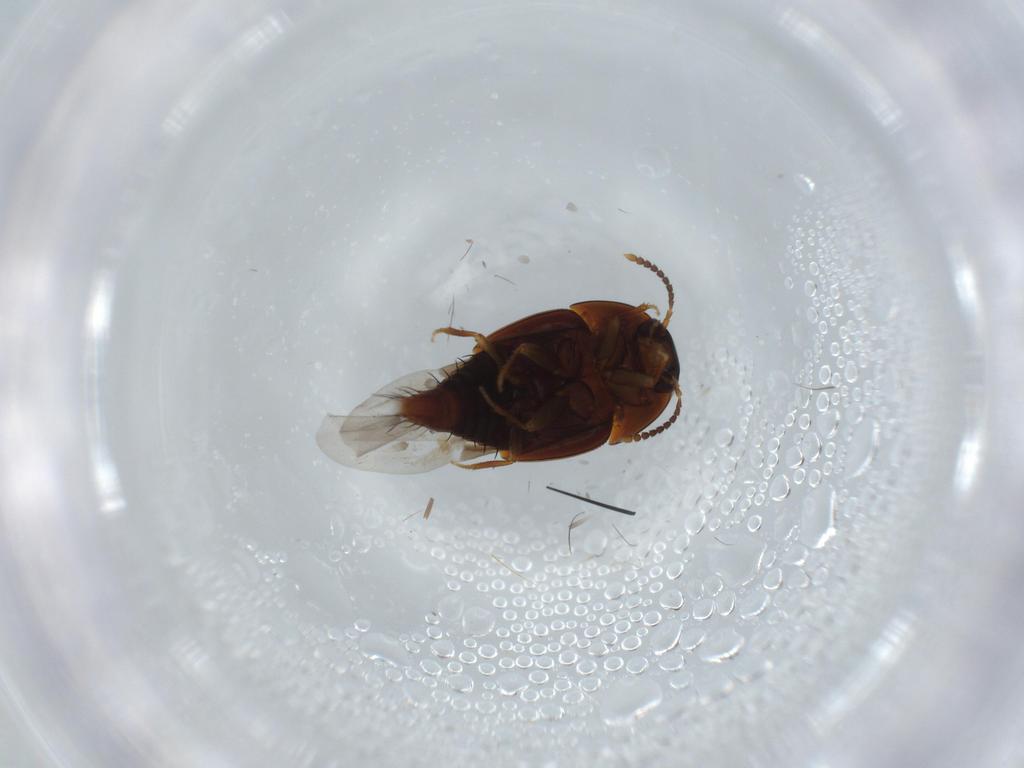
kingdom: Animalia
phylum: Arthropoda
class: Insecta
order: Coleoptera
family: Staphylinidae
